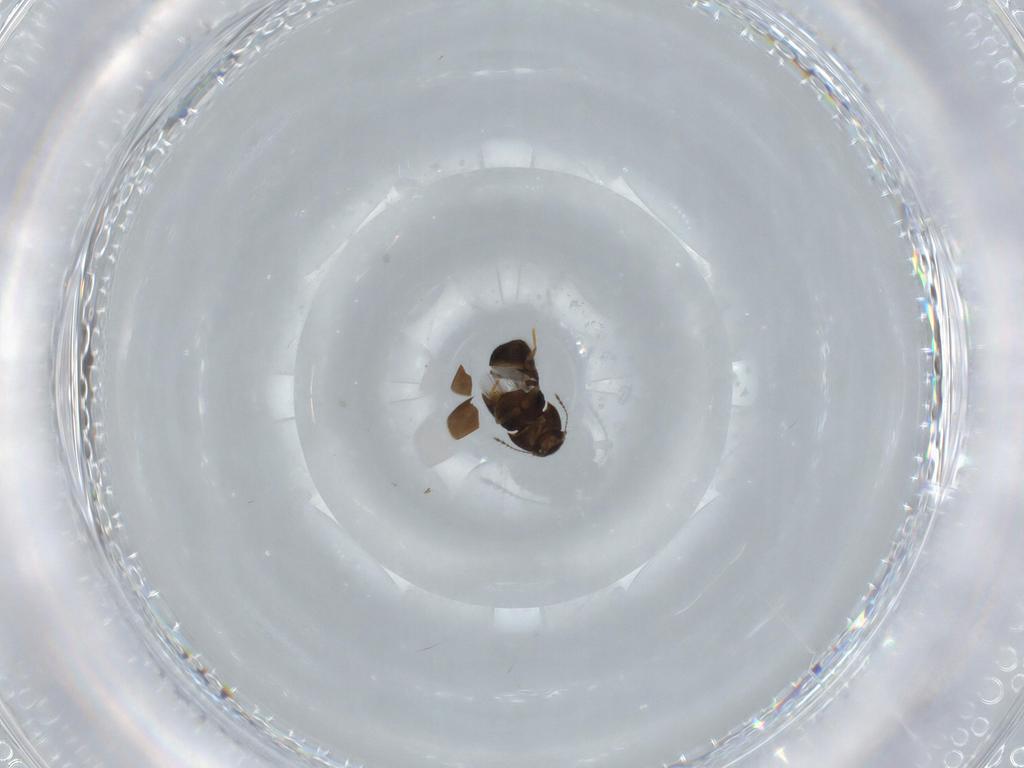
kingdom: Animalia
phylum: Arthropoda
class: Insecta
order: Coleoptera
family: Ptiliidae
